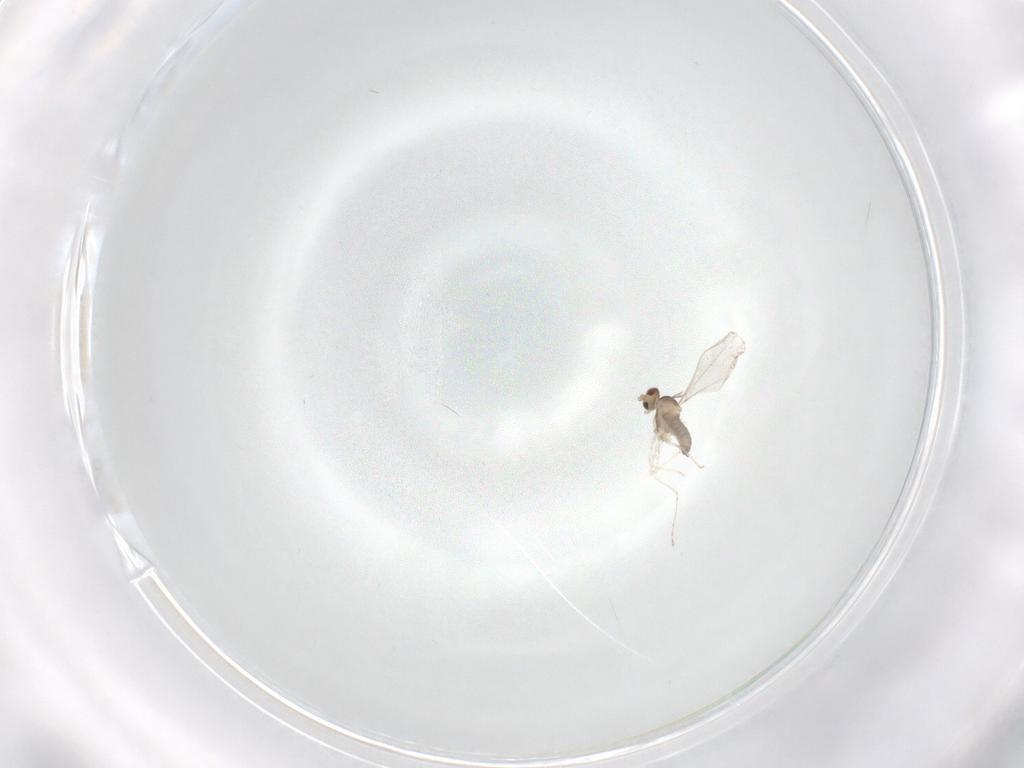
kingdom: Animalia
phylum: Arthropoda
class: Insecta
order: Diptera
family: Cecidomyiidae
